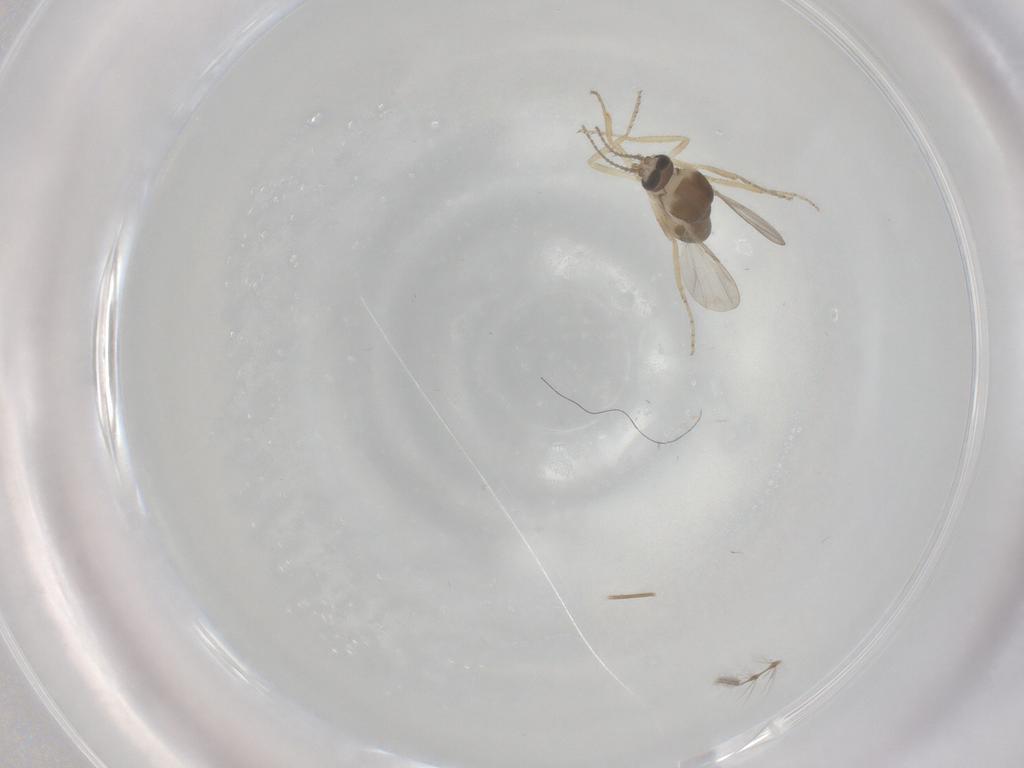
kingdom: Animalia
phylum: Arthropoda
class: Insecta
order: Diptera
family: Ceratopogonidae
